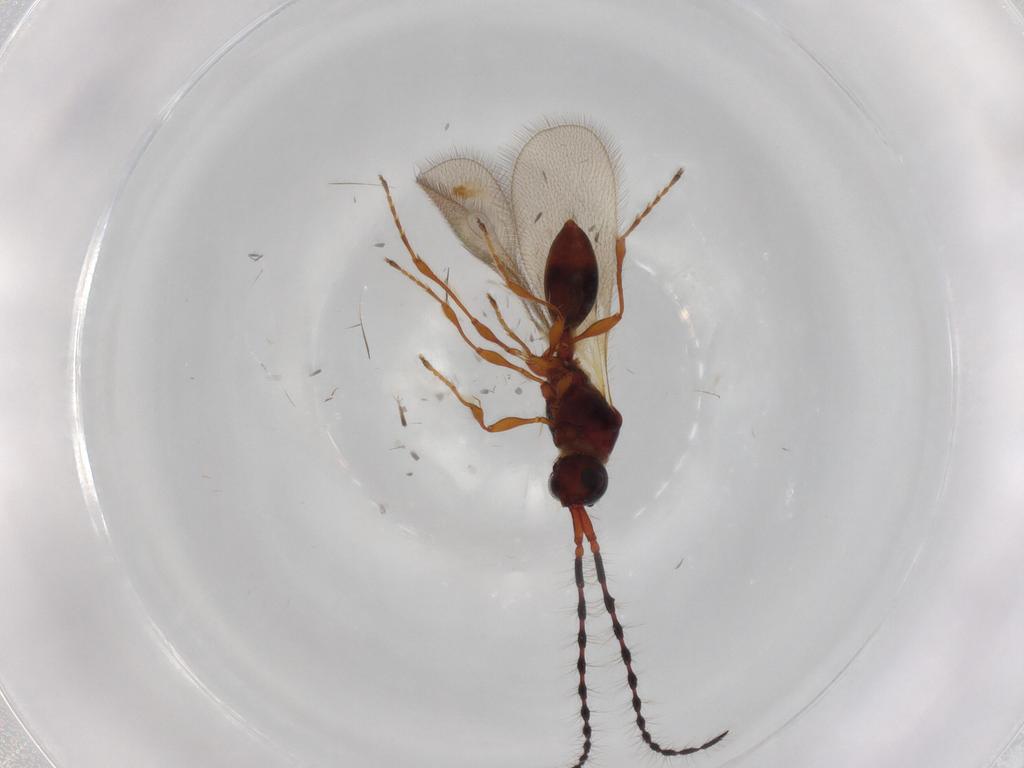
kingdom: Animalia
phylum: Arthropoda
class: Insecta
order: Hymenoptera
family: Diapriidae
